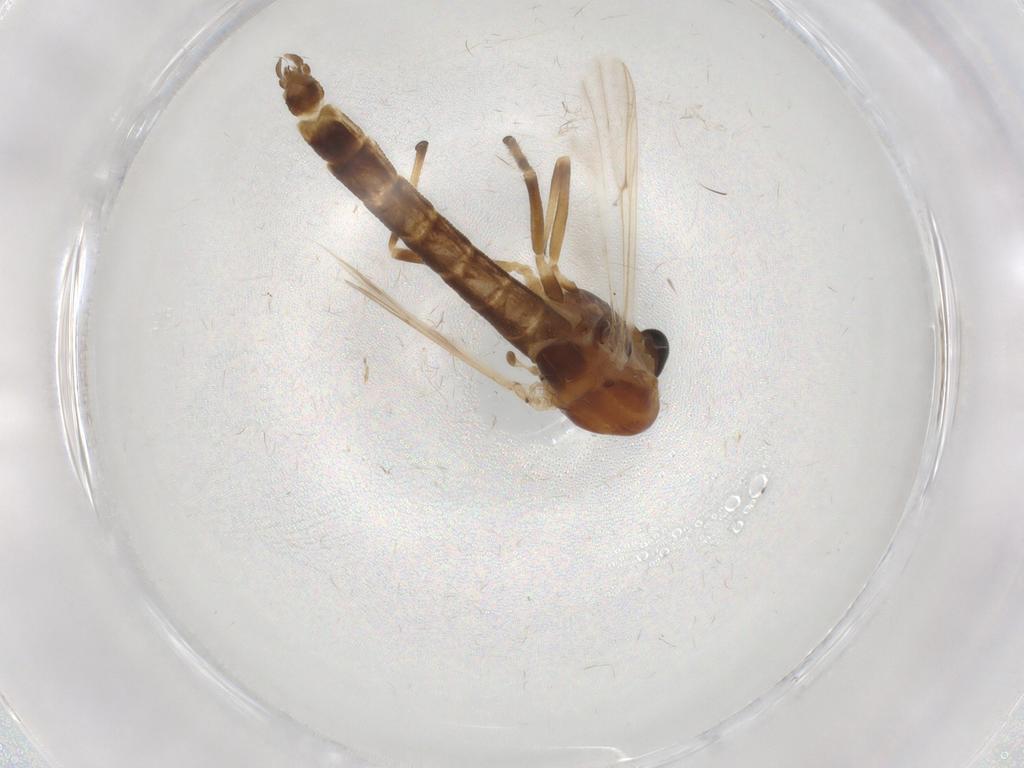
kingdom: Animalia
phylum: Arthropoda
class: Insecta
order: Diptera
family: Chironomidae
